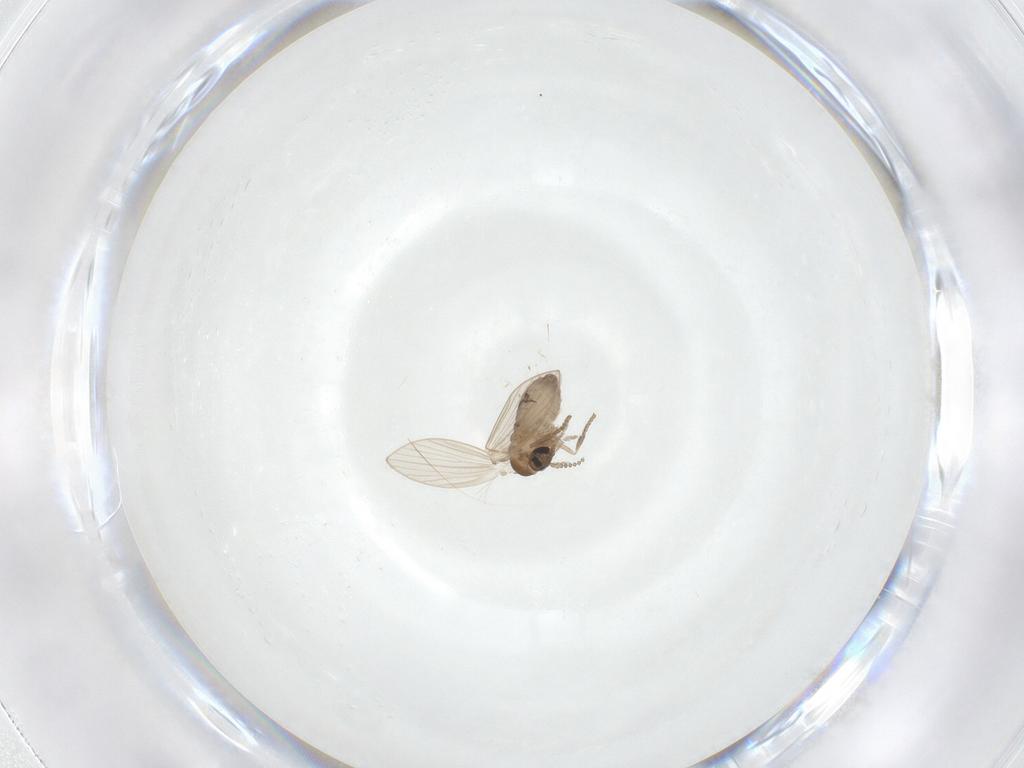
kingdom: Animalia
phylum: Arthropoda
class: Insecta
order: Diptera
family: Psychodidae
